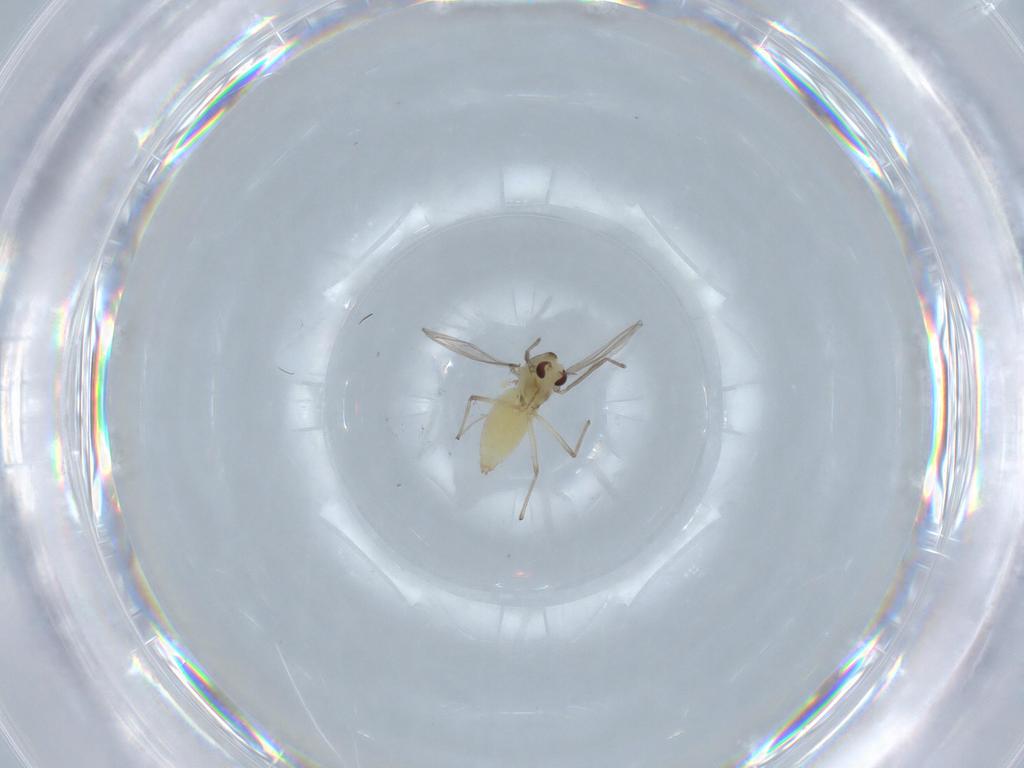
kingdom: Animalia
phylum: Arthropoda
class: Insecta
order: Diptera
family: Chironomidae
